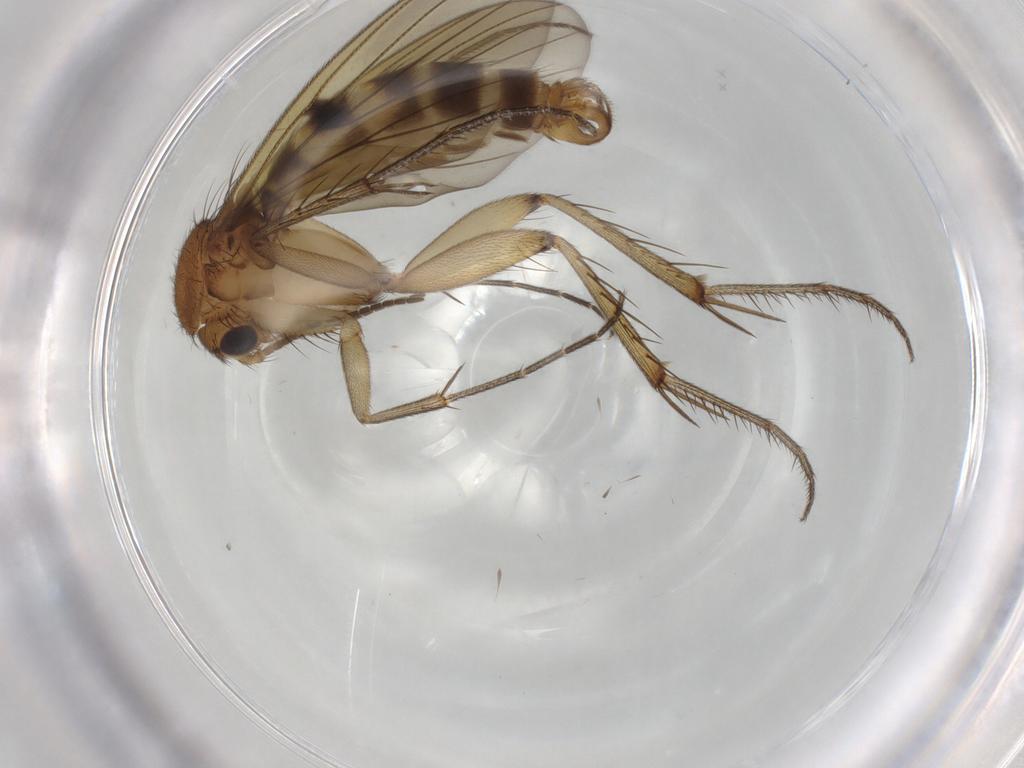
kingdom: Animalia
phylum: Arthropoda
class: Insecta
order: Diptera
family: Mycetophilidae
